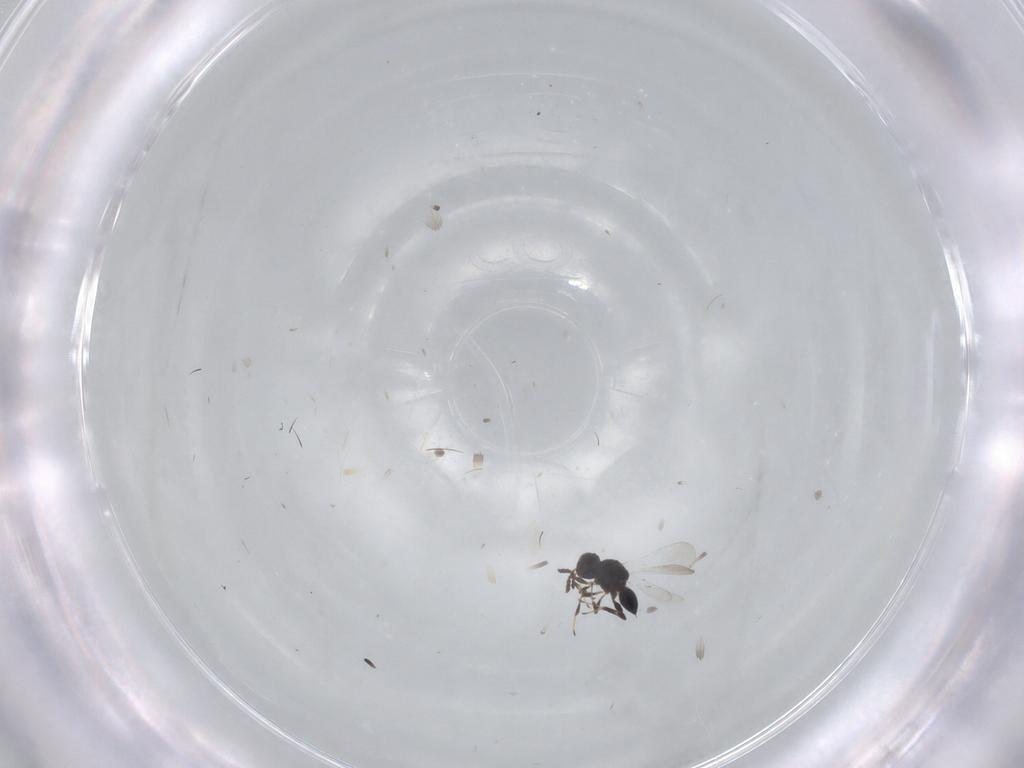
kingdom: Animalia
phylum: Arthropoda
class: Insecta
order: Hymenoptera
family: Platygastridae
